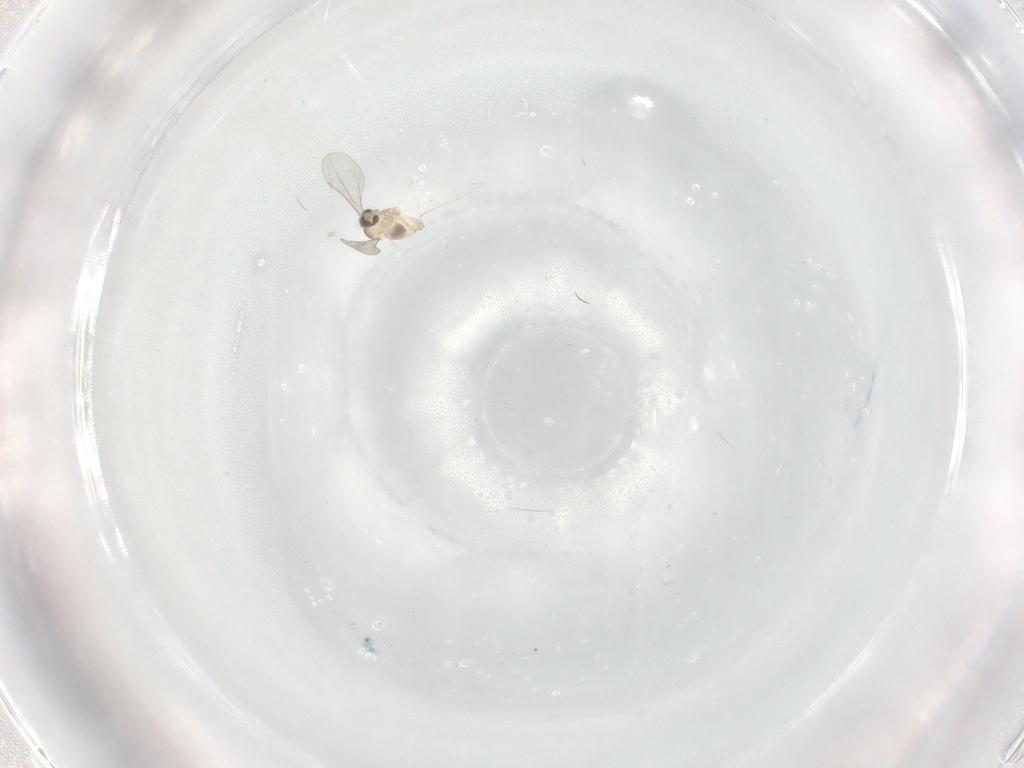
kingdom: Animalia
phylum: Arthropoda
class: Insecta
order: Diptera
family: Cecidomyiidae
